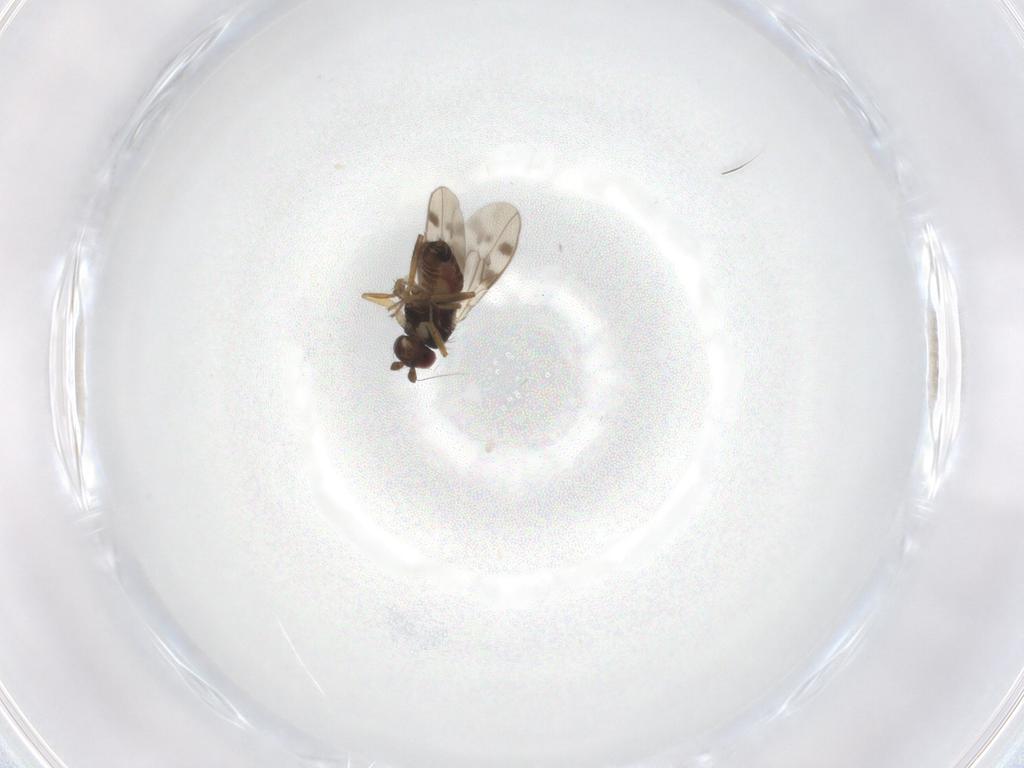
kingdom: Animalia
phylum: Arthropoda
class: Insecta
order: Diptera
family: Sphaeroceridae
